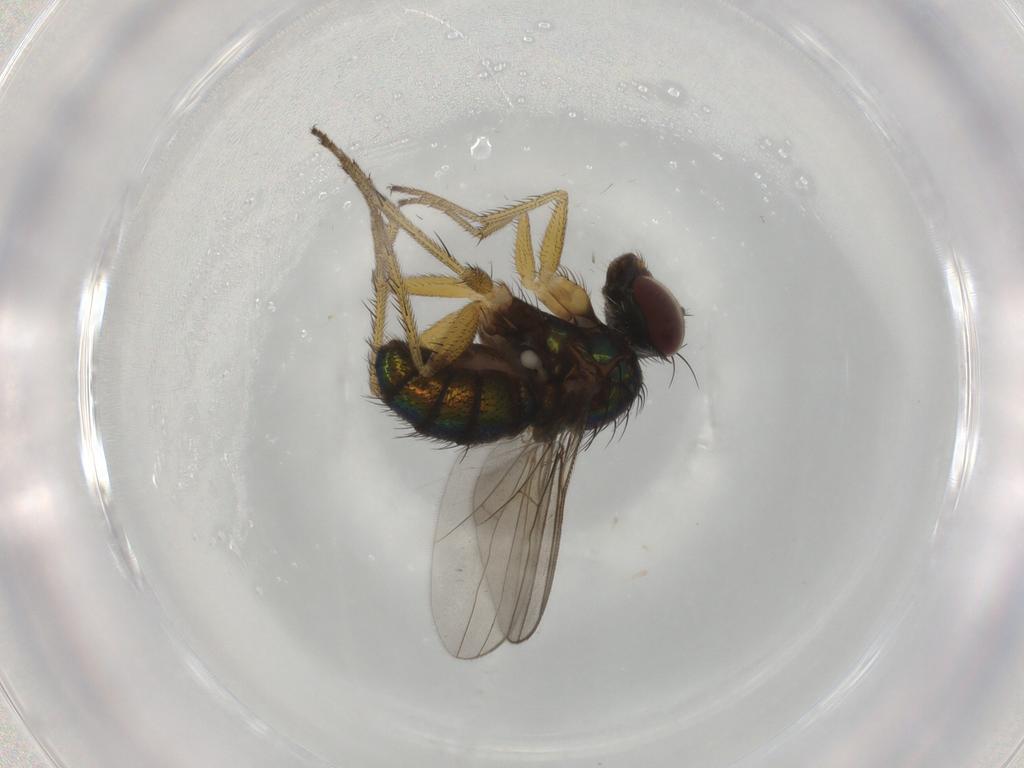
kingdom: Animalia
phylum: Arthropoda
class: Insecta
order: Diptera
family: Dolichopodidae
